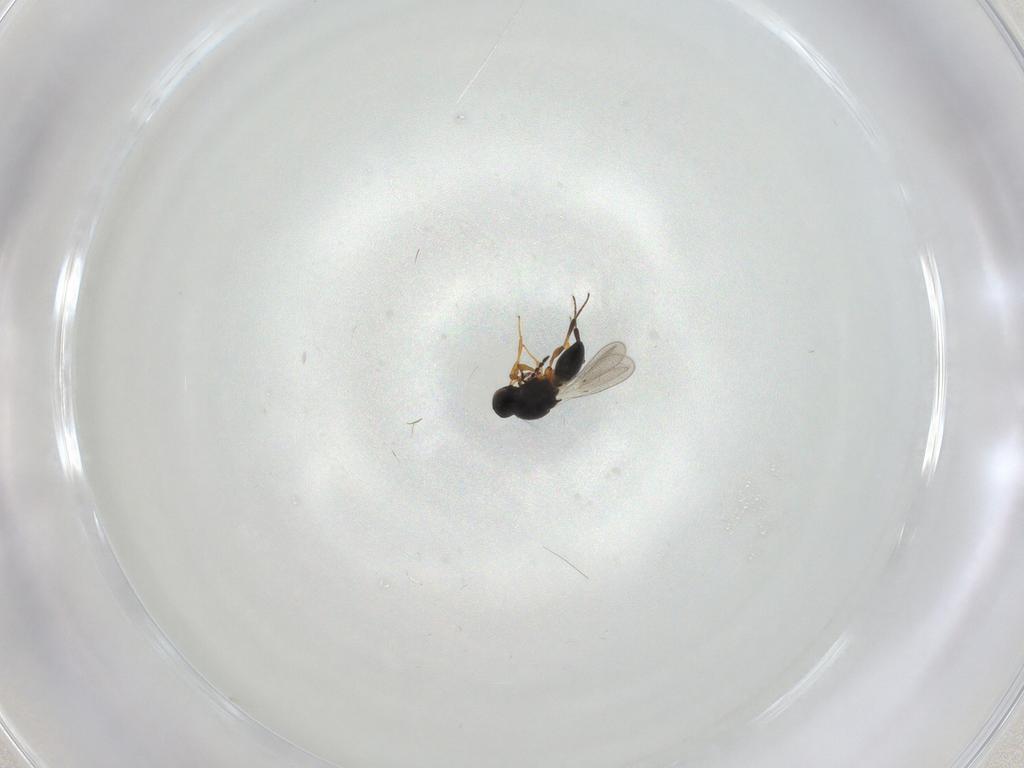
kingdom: Animalia
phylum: Arthropoda
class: Insecta
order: Hymenoptera
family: Platygastridae
